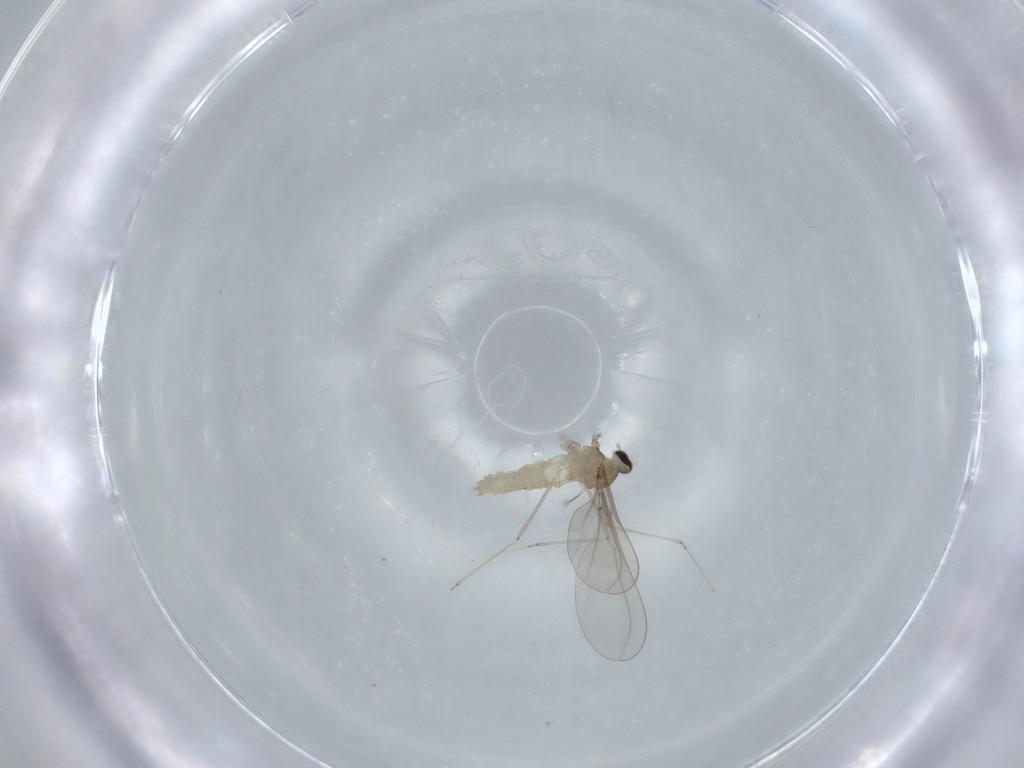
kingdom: Animalia
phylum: Arthropoda
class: Insecta
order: Diptera
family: Cecidomyiidae
